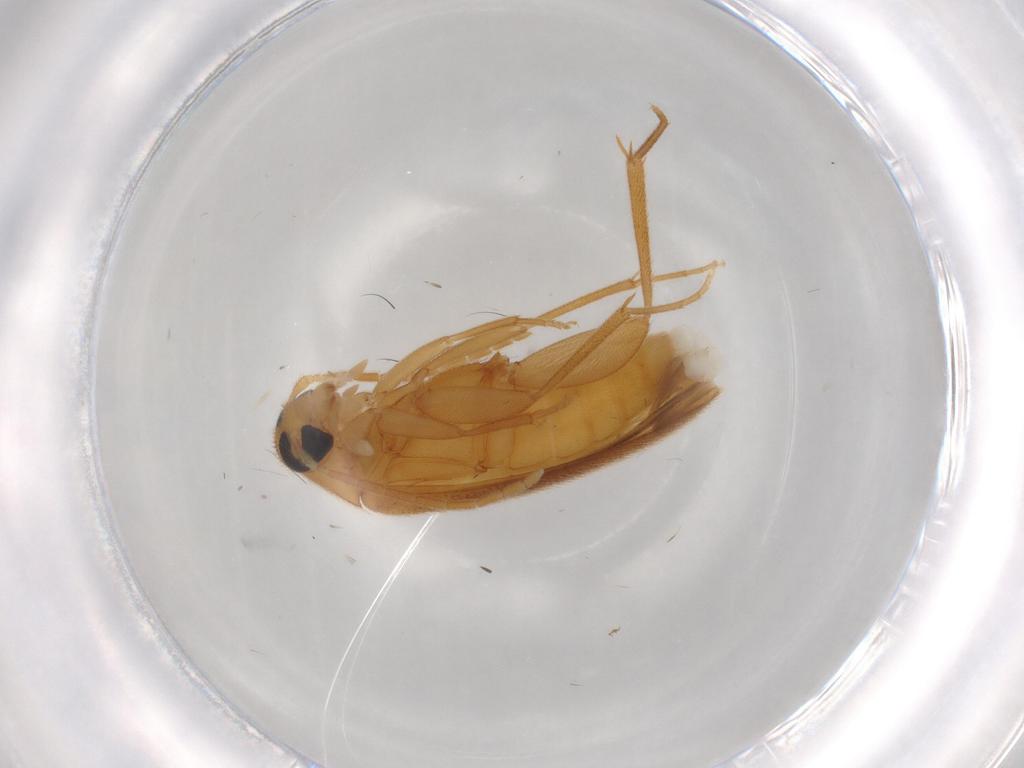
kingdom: Animalia
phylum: Arthropoda
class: Insecta
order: Coleoptera
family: Scraptiidae
